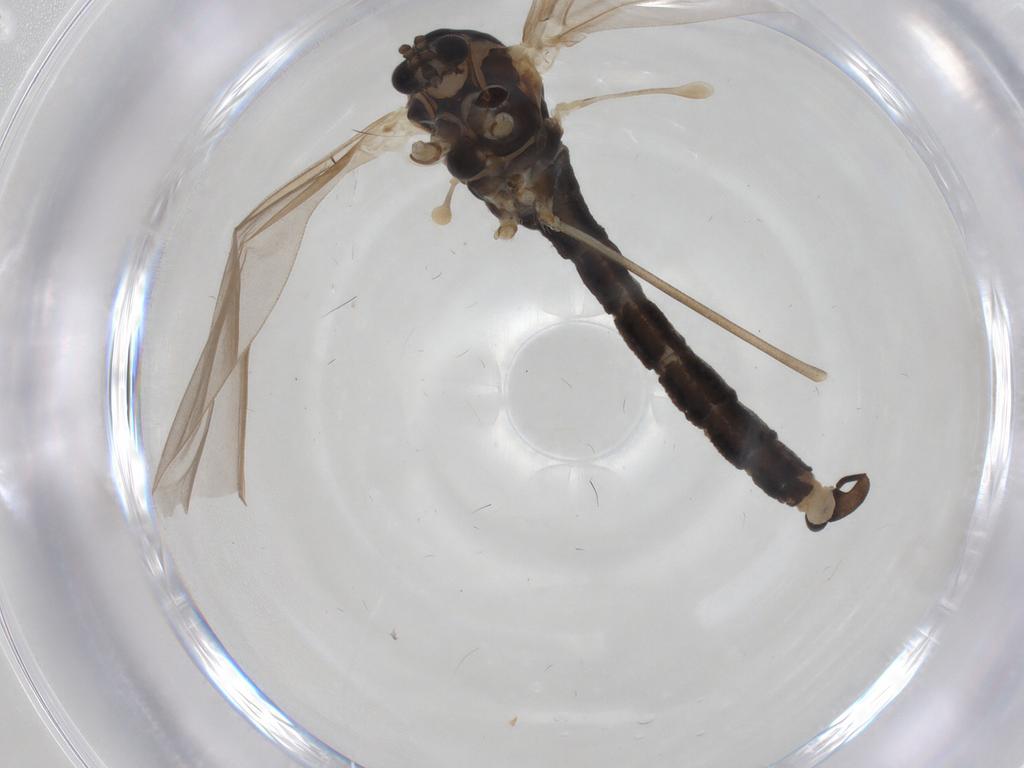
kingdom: Animalia
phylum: Arthropoda
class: Insecta
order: Diptera
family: Cecidomyiidae
